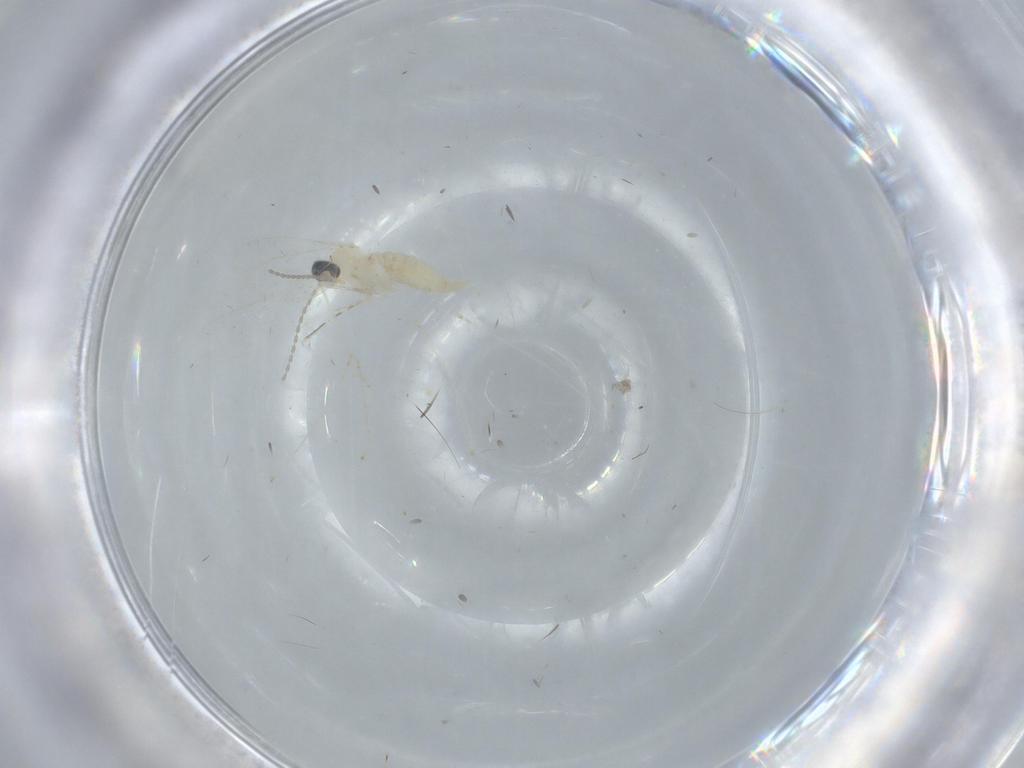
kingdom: Animalia
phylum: Arthropoda
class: Insecta
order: Diptera
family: Cecidomyiidae
